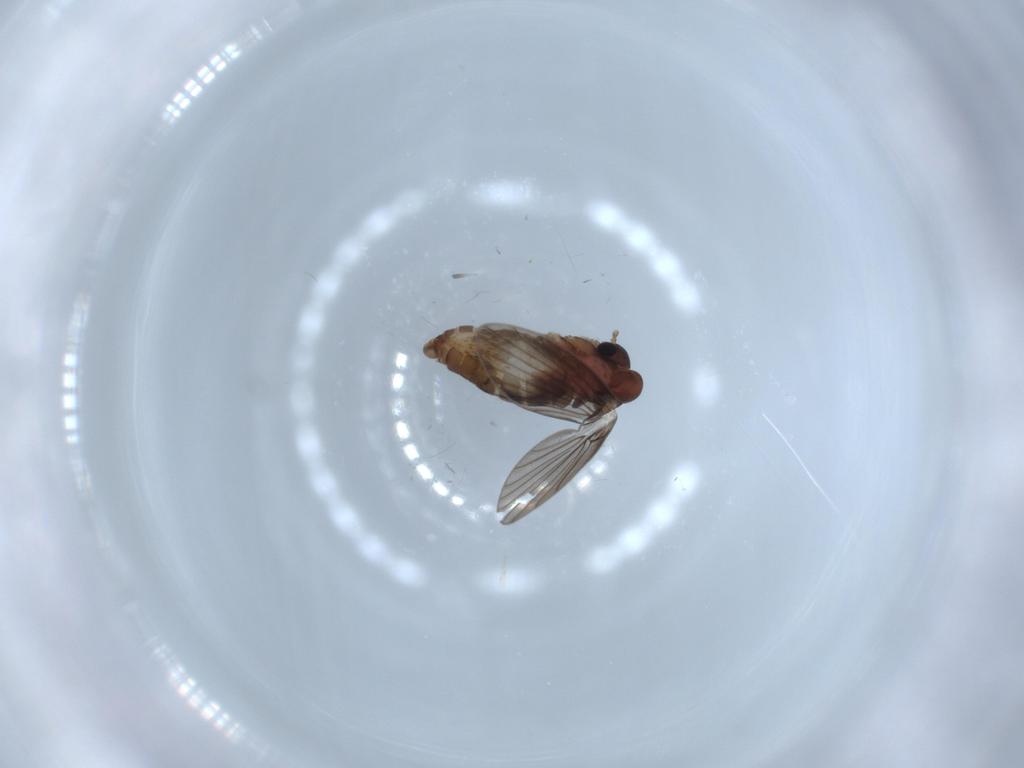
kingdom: Animalia
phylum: Arthropoda
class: Insecta
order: Diptera
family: Psychodidae
